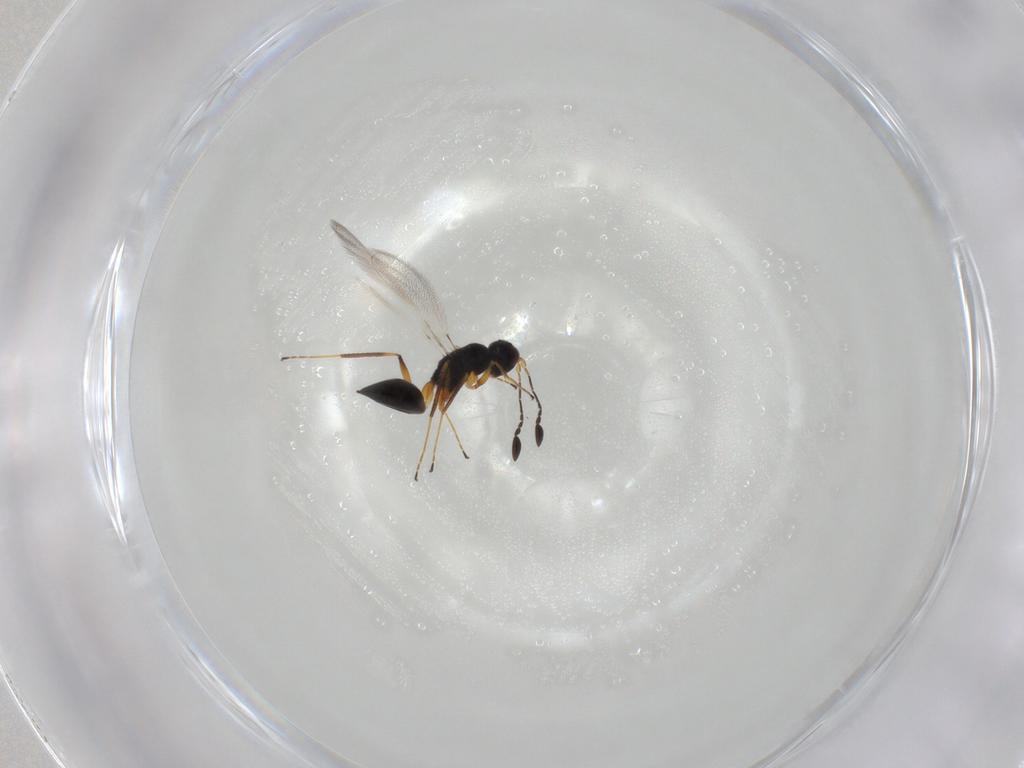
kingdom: Animalia
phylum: Arthropoda
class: Insecta
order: Hymenoptera
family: Mymaridae
